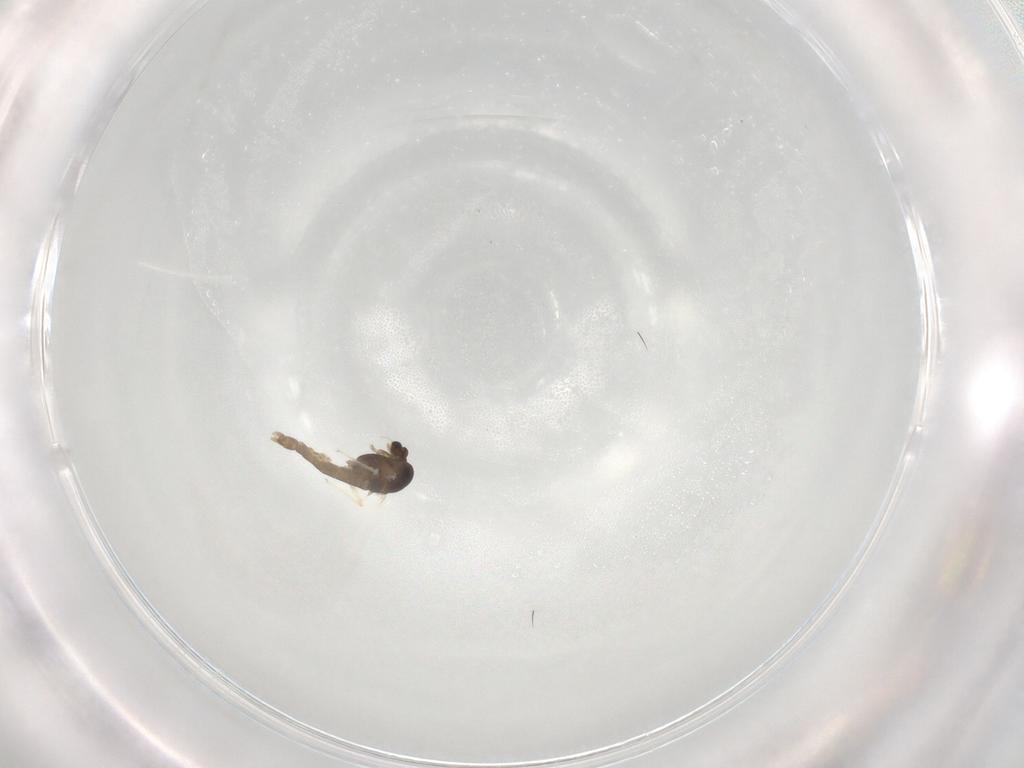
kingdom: Animalia
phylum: Arthropoda
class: Insecta
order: Diptera
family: Chironomidae
